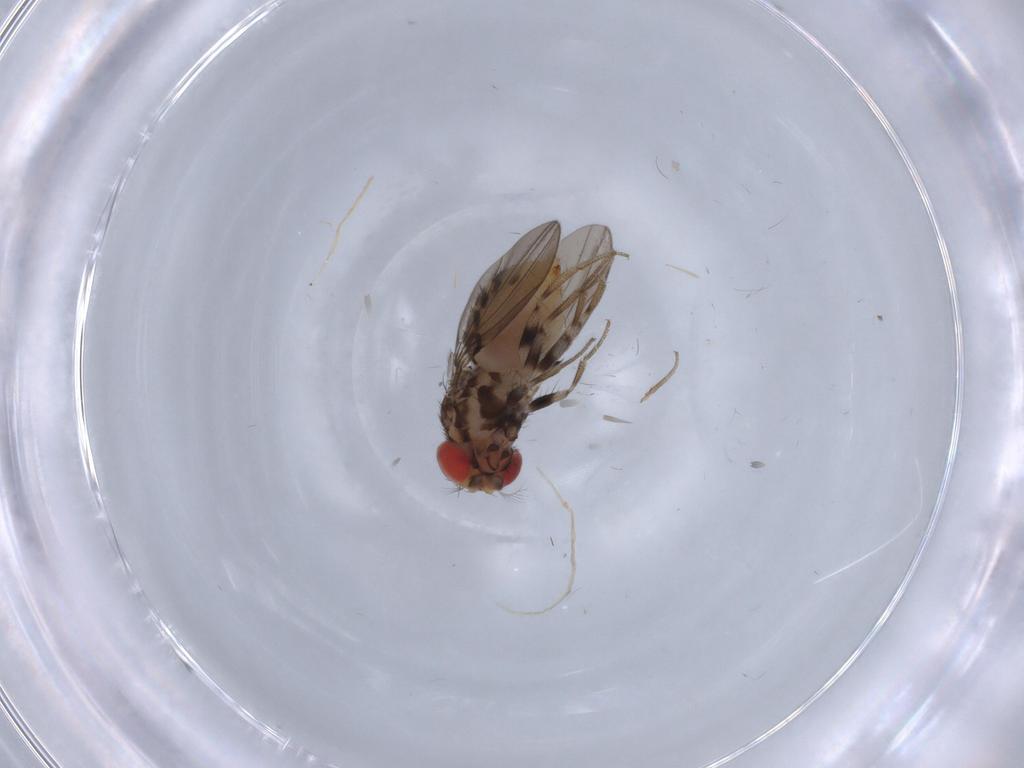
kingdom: Animalia
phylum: Arthropoda
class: Insecta
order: Diptera
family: Drosophilidae
